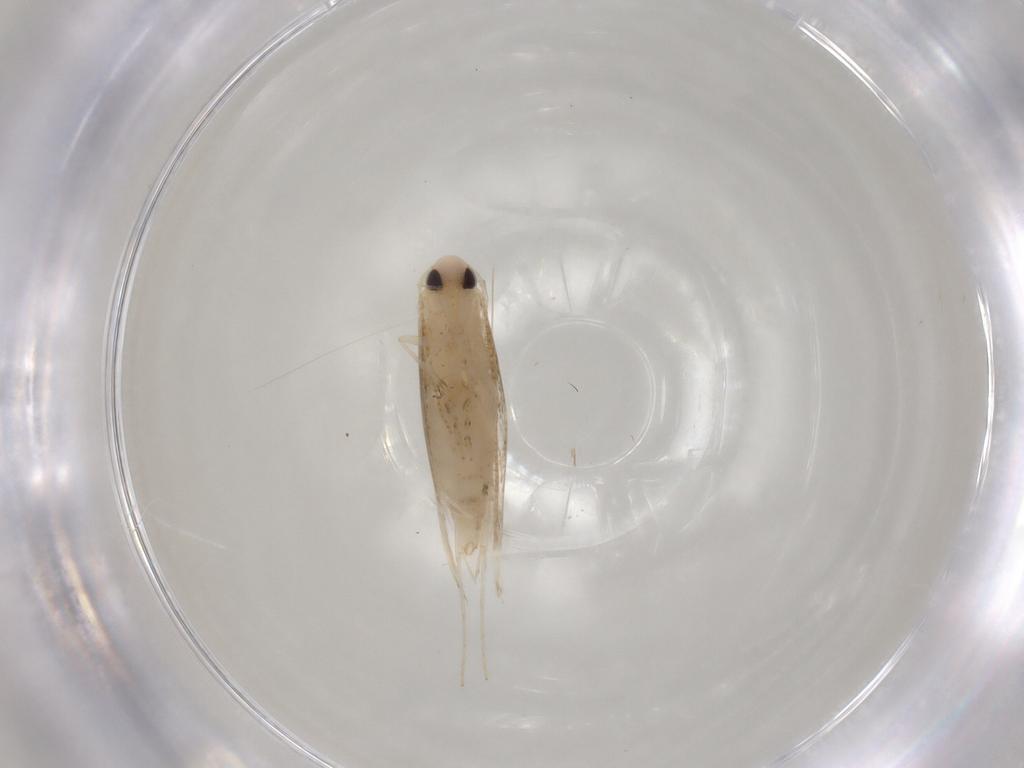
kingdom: Animalia
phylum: Arthropoda
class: Insecta
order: Lepidoptera
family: Gracillariidae
